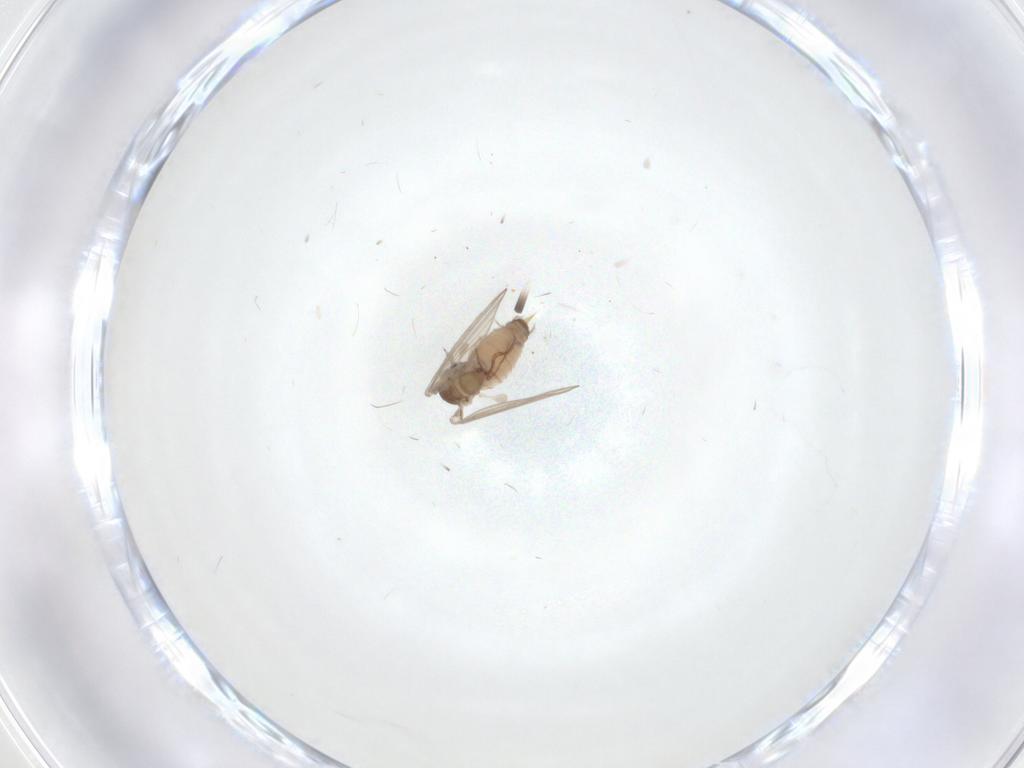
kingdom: Animalia
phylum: Arthropoda
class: Insecta
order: Diptera
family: Psychodidae
